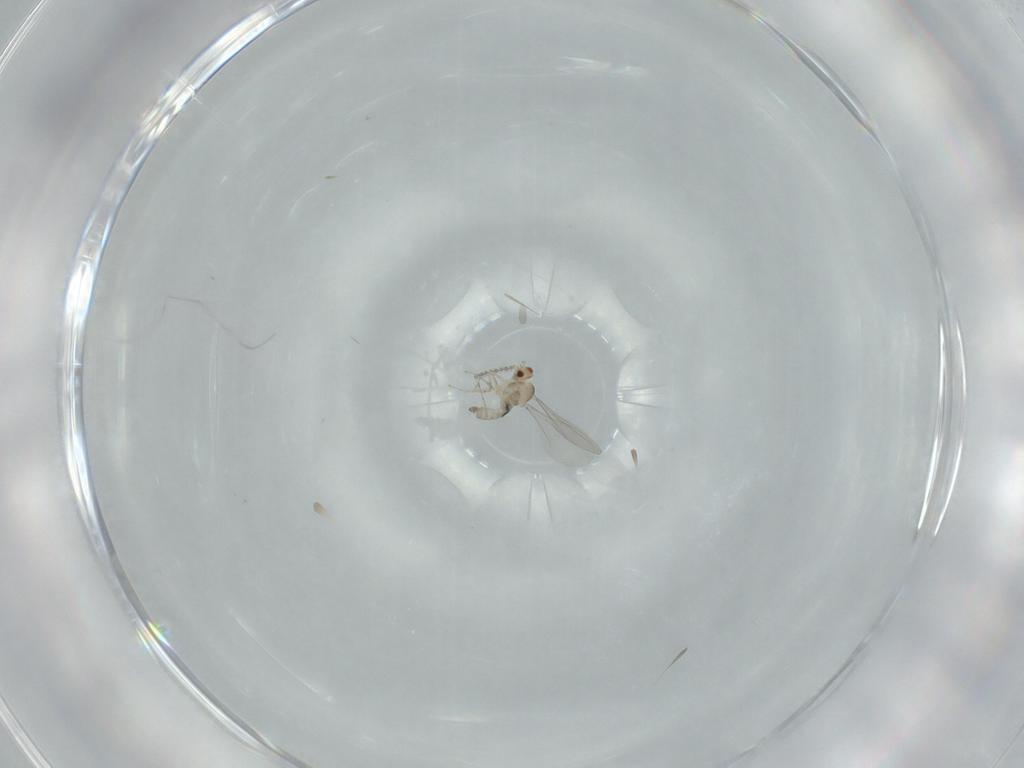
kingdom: Animalia
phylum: Arthropoda
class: Insecta
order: Diptera
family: Cecidomyiidae
